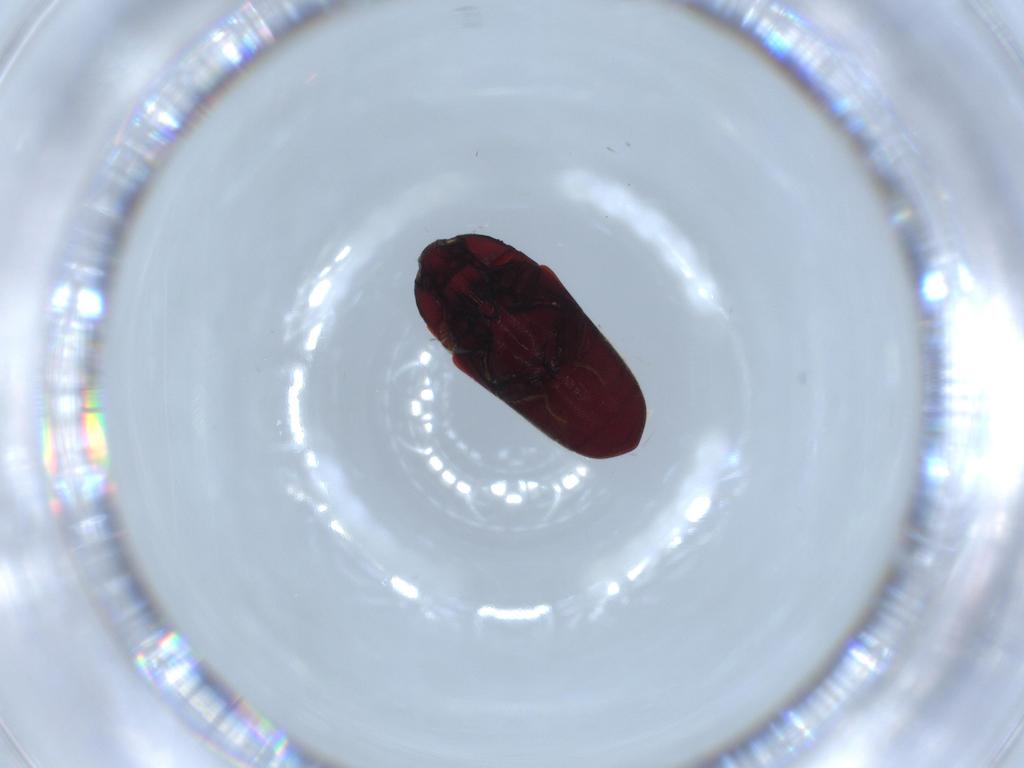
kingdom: Animalia
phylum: Arthropoda
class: Insecta
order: Coleoptera
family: Throscidae
